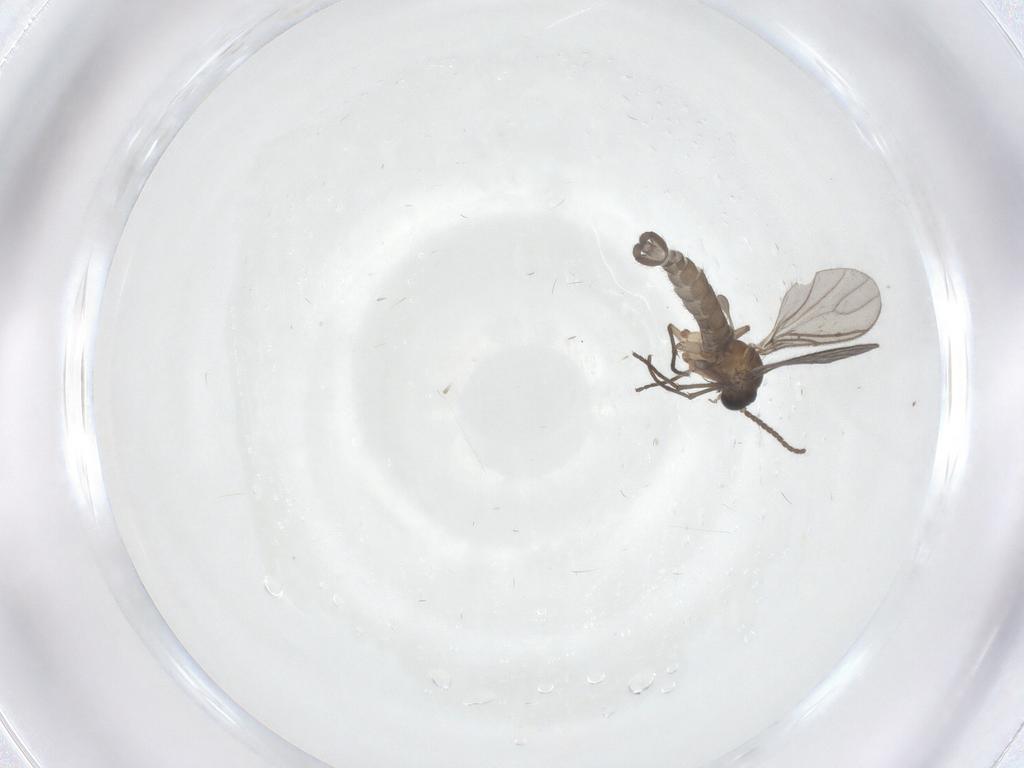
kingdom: Animalia
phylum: Arthropoda
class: Insecta
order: Diptera
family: Sciaridae
